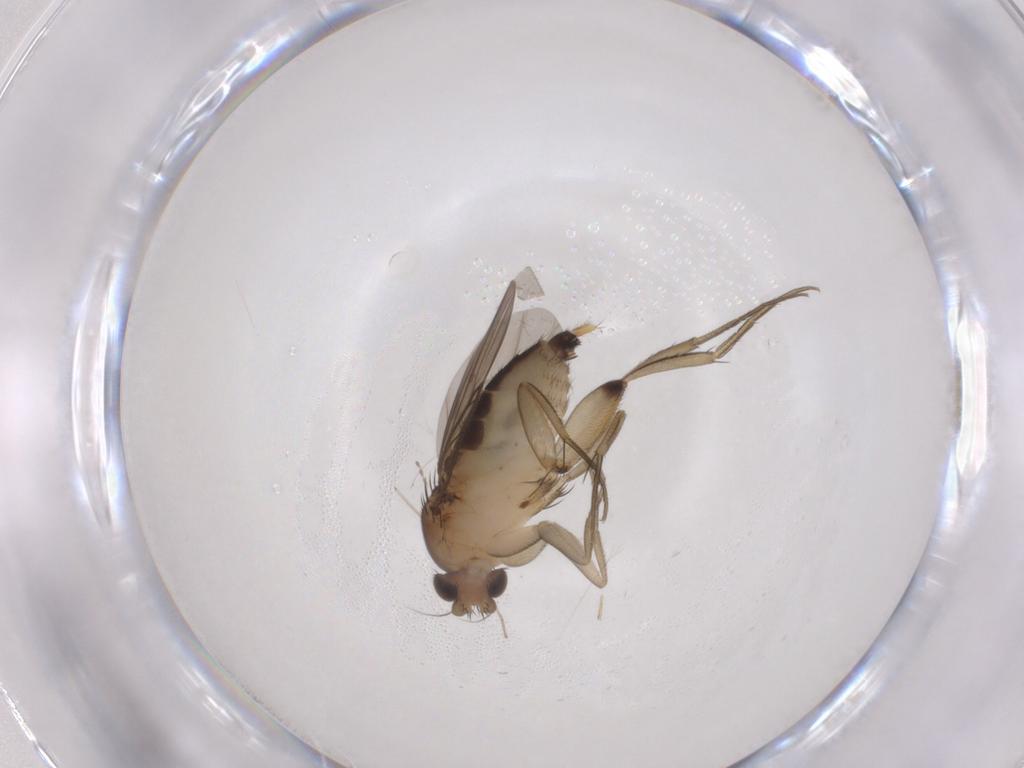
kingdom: Animalia
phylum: Arthropoda
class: Insecta
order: Diptera
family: Phoridae
